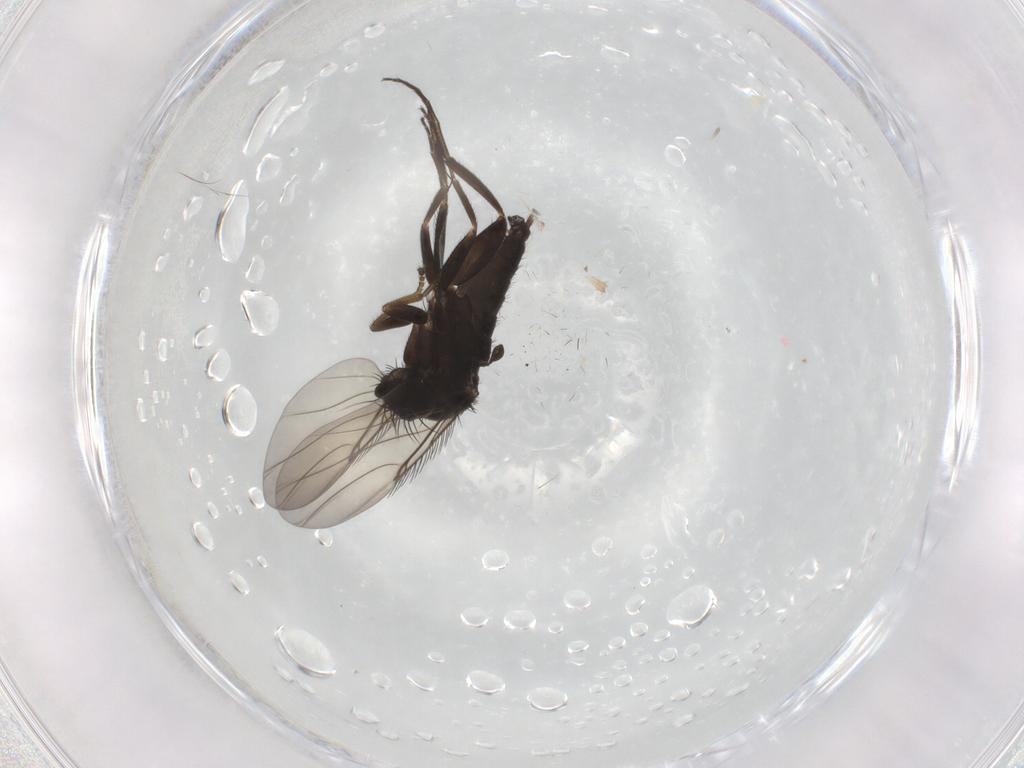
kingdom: Animalia
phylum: Arthropoda
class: Insecta
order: Diptera
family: Phoridae
